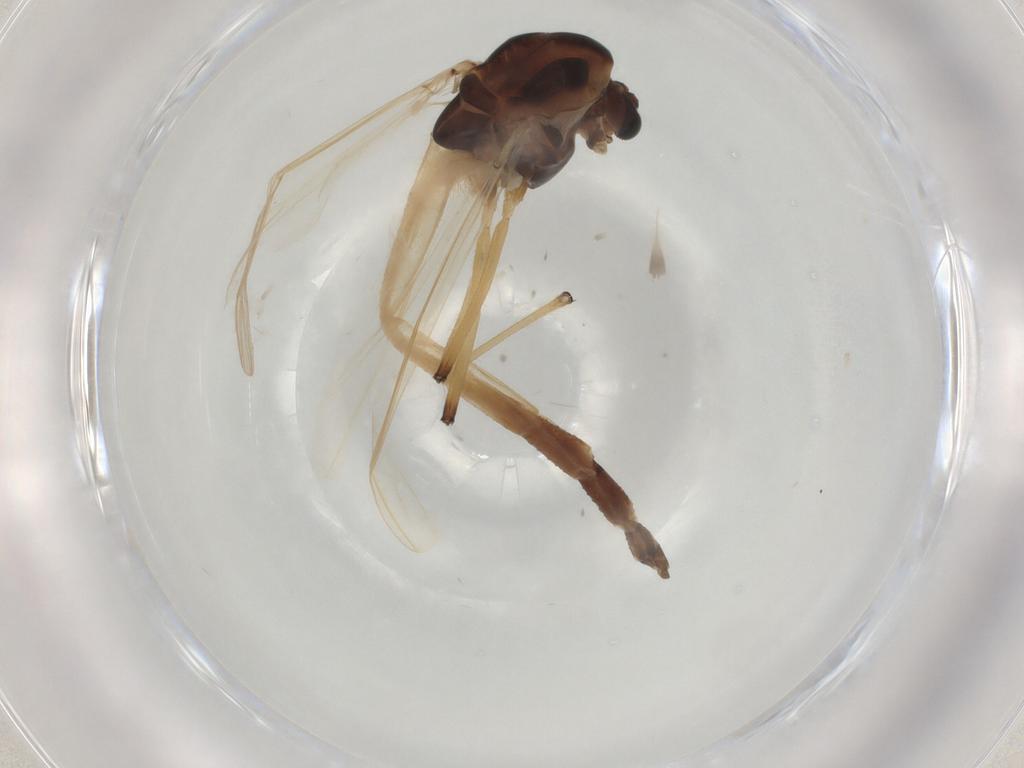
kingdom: Animalia
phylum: Arthropoda
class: Insecta
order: Diptera
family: Chironomidae
